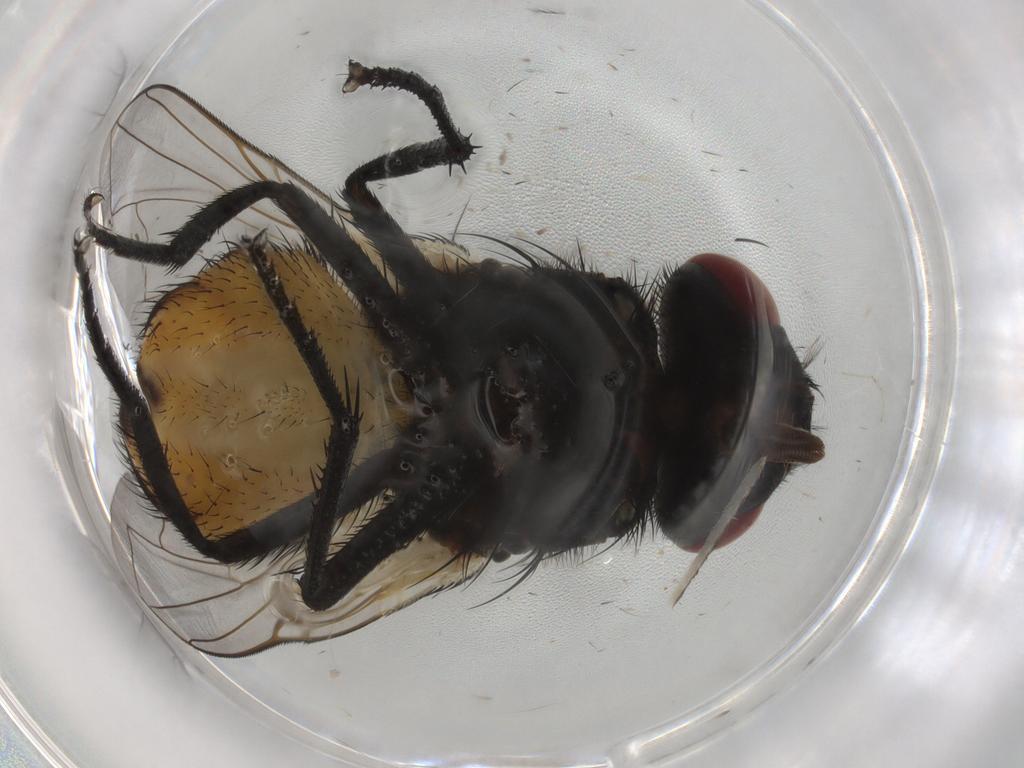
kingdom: Animalia
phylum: Arthropoda
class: Insecta
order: Diptera
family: Muscidae
